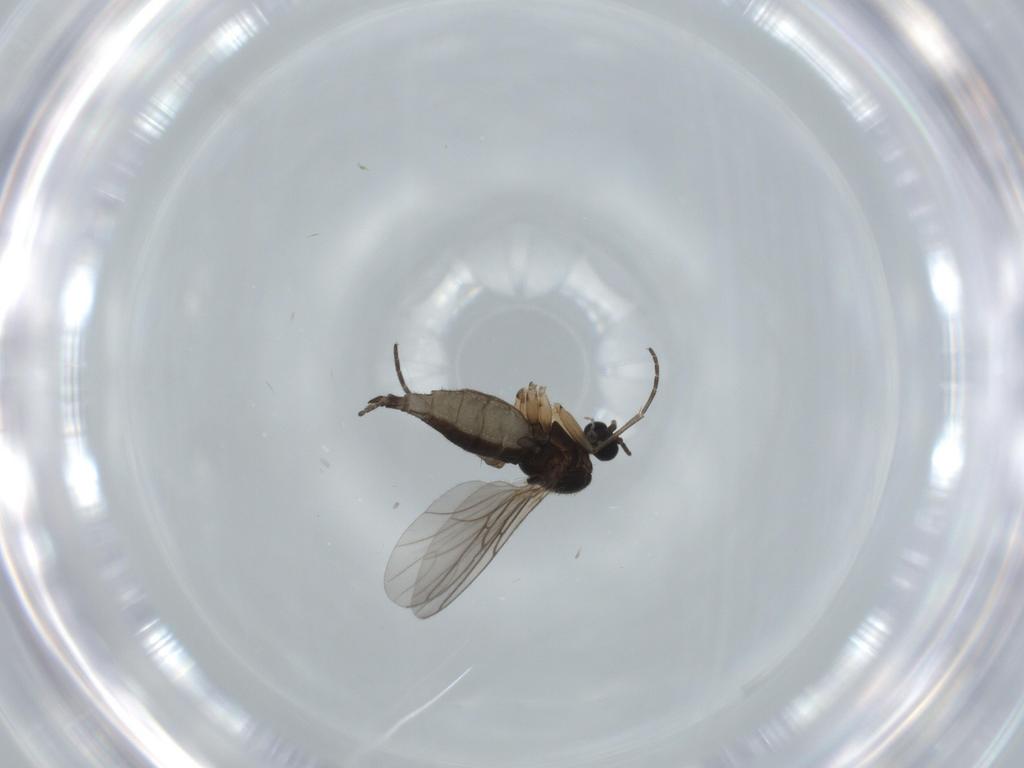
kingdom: Animalia
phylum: Arthropoda
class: Insecta
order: Diptera
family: Sciaridae
